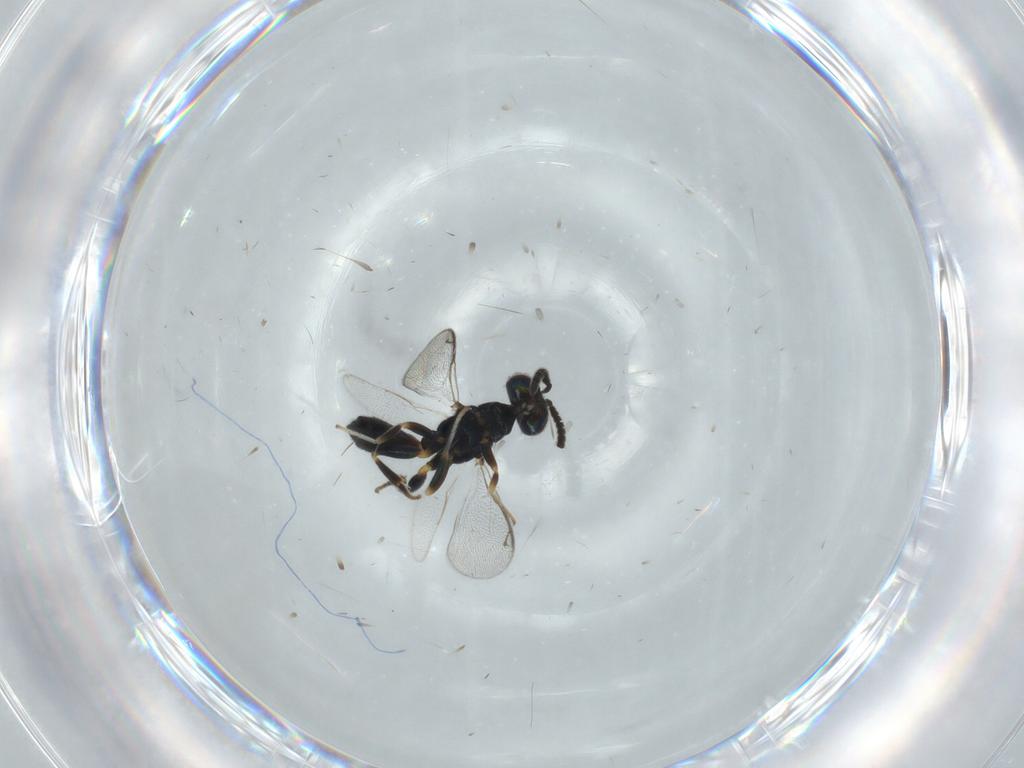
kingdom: Animalia
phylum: Arthropoda
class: Insecta
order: Hymenoptera
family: Cleonyminae
